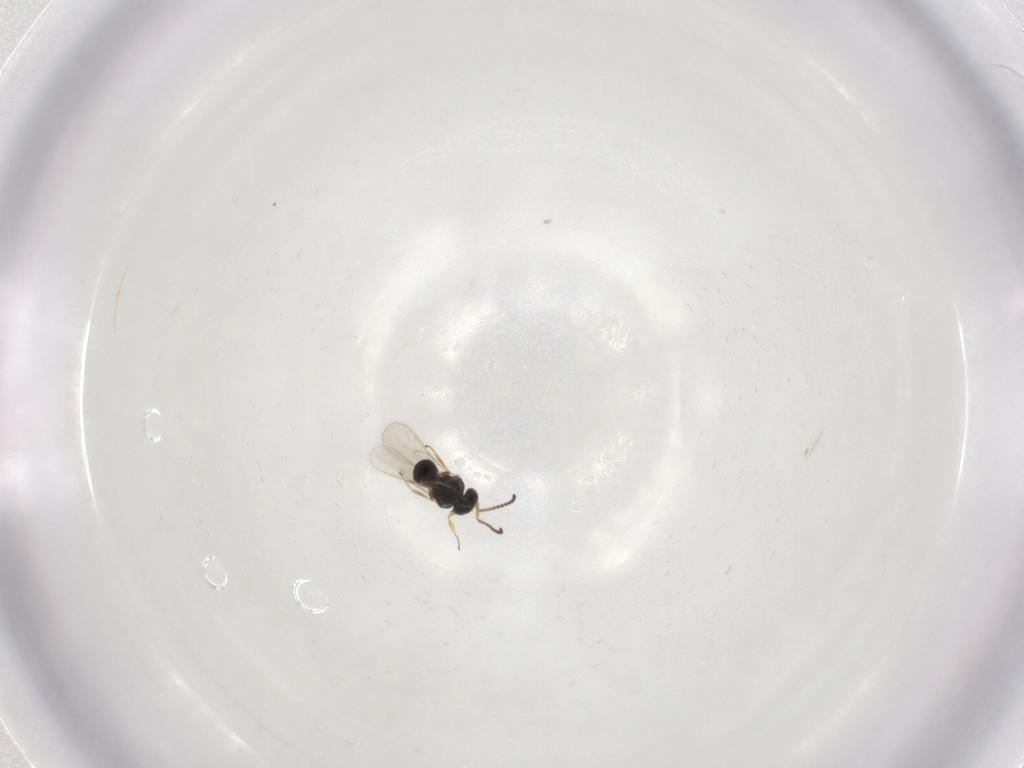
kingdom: Animalia
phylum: Arthropoda
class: Insecta
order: Hymenoptera
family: Scelionidae
